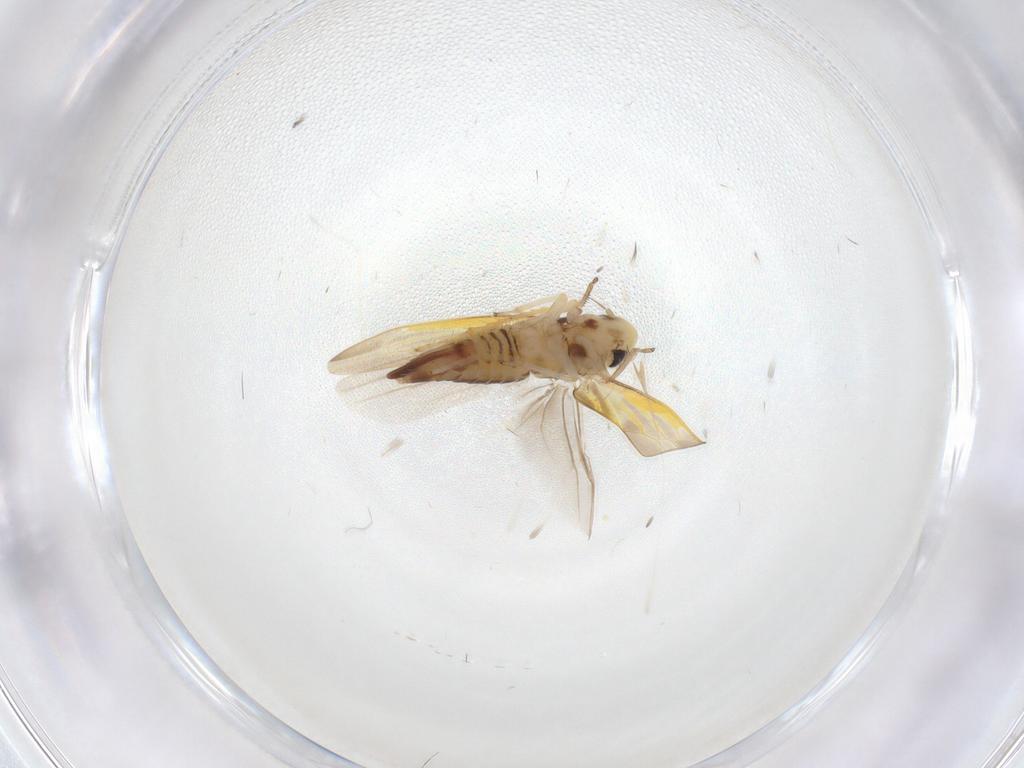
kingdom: Animalia
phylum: Arthropoda
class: Insecta
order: Hemiptera
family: Cicadellidae
